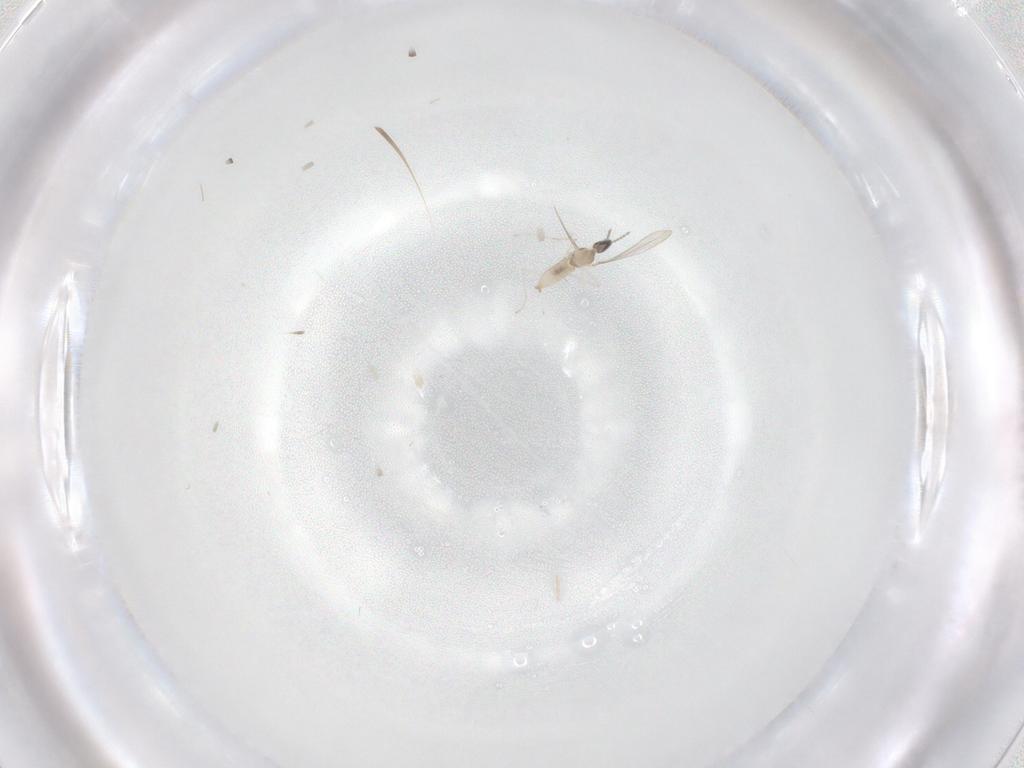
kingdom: Animalia
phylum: Arthropoda
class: Insecta
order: Diptera
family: Cecidomyiidae
